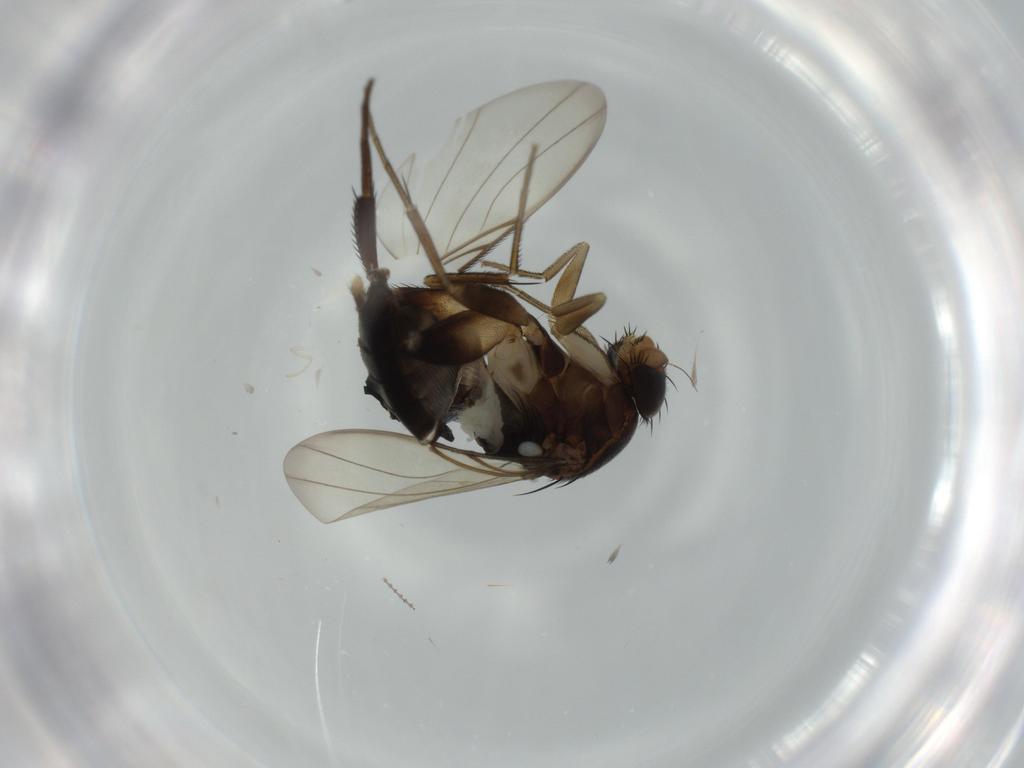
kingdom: Animalia
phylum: Arthropoda
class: Insecta
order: Diptera
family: Phoridae
